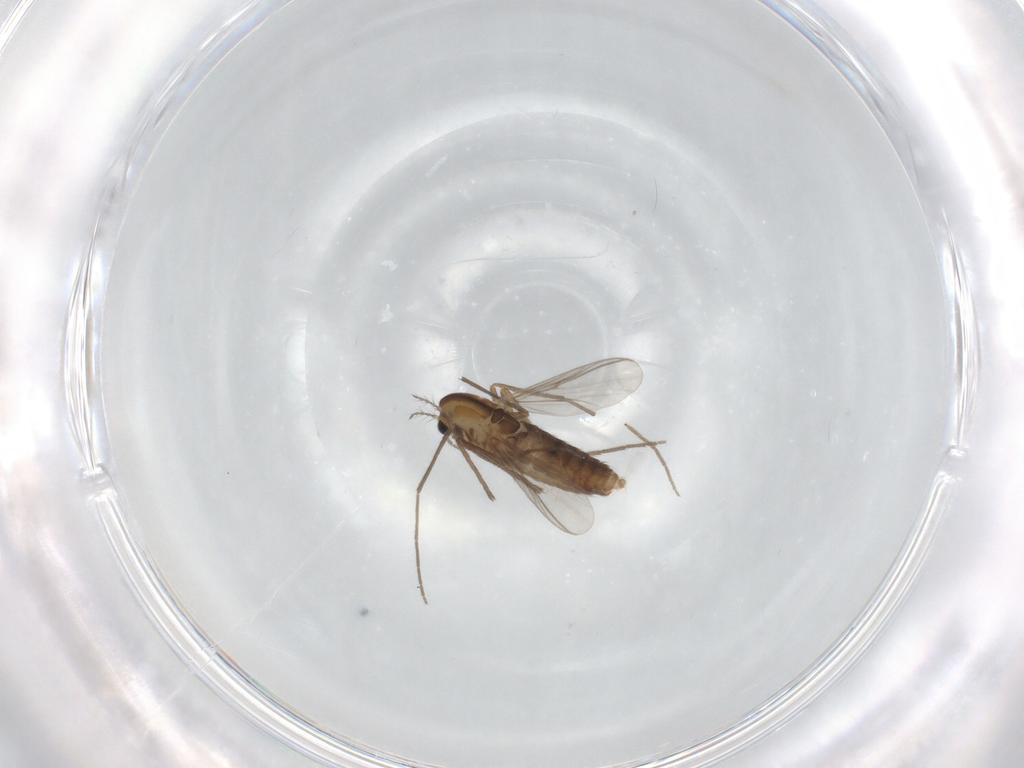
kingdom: Animalia
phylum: Arthropoda
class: Insecta
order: Diptera
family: Chironomidae
